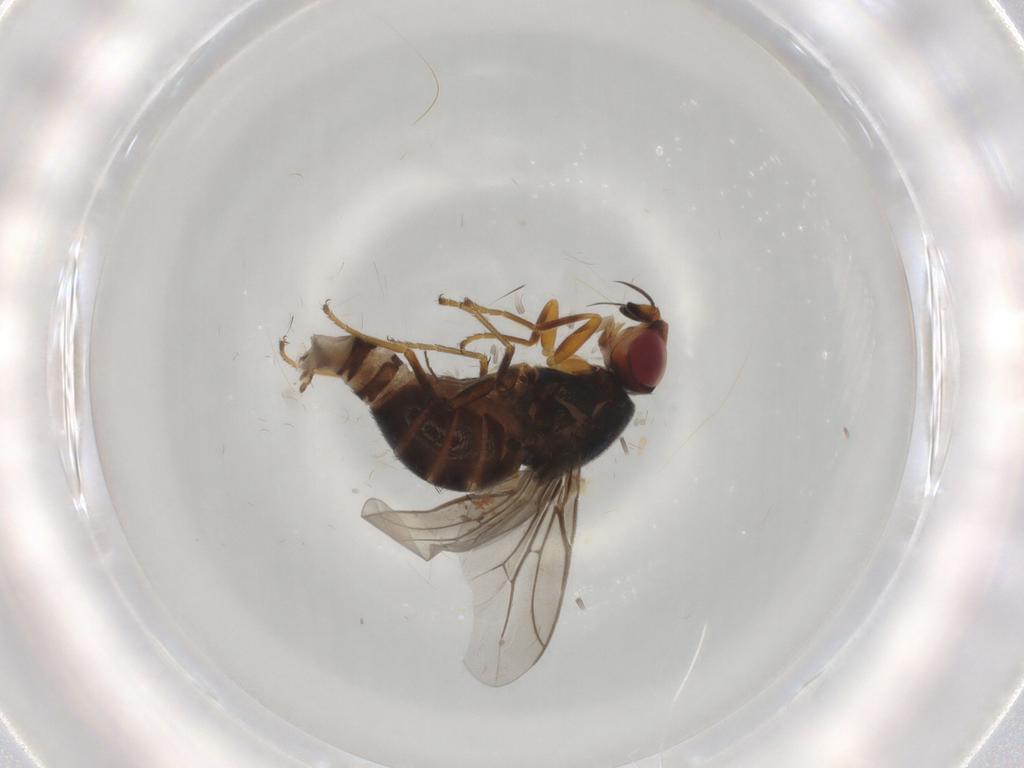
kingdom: Animalia
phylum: Arthropoda
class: Insecta
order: Diptera
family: Chloropidae
